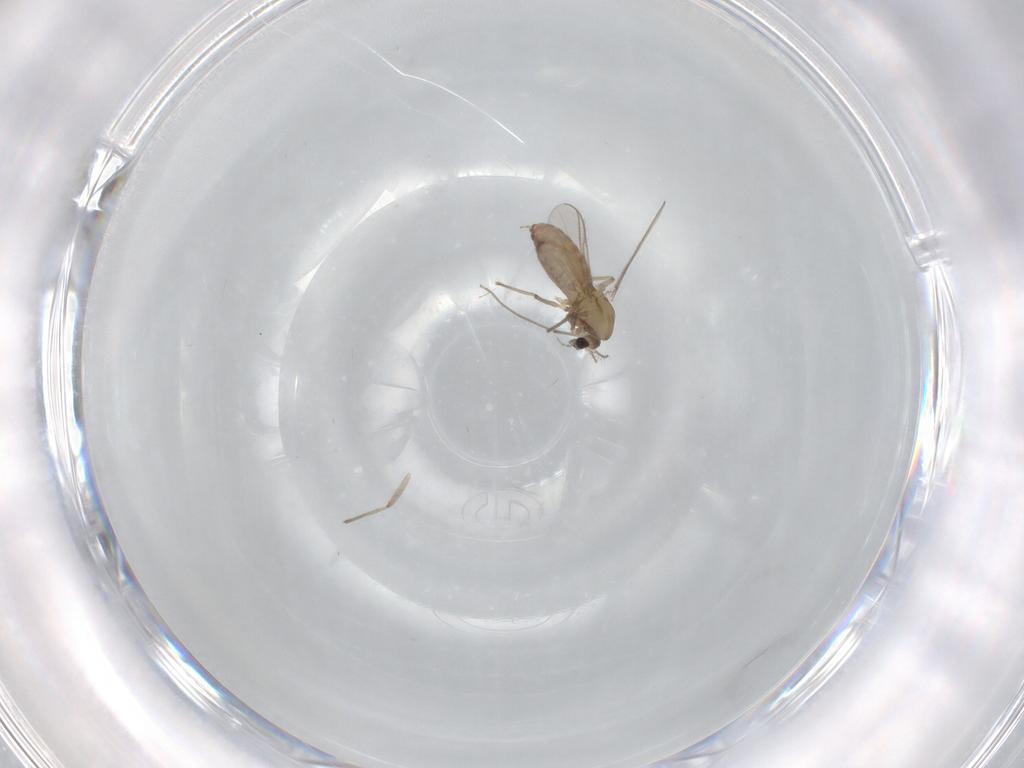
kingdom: Animalia
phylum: Arthropoda
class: Insecta
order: Diptera
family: Chironomidae
